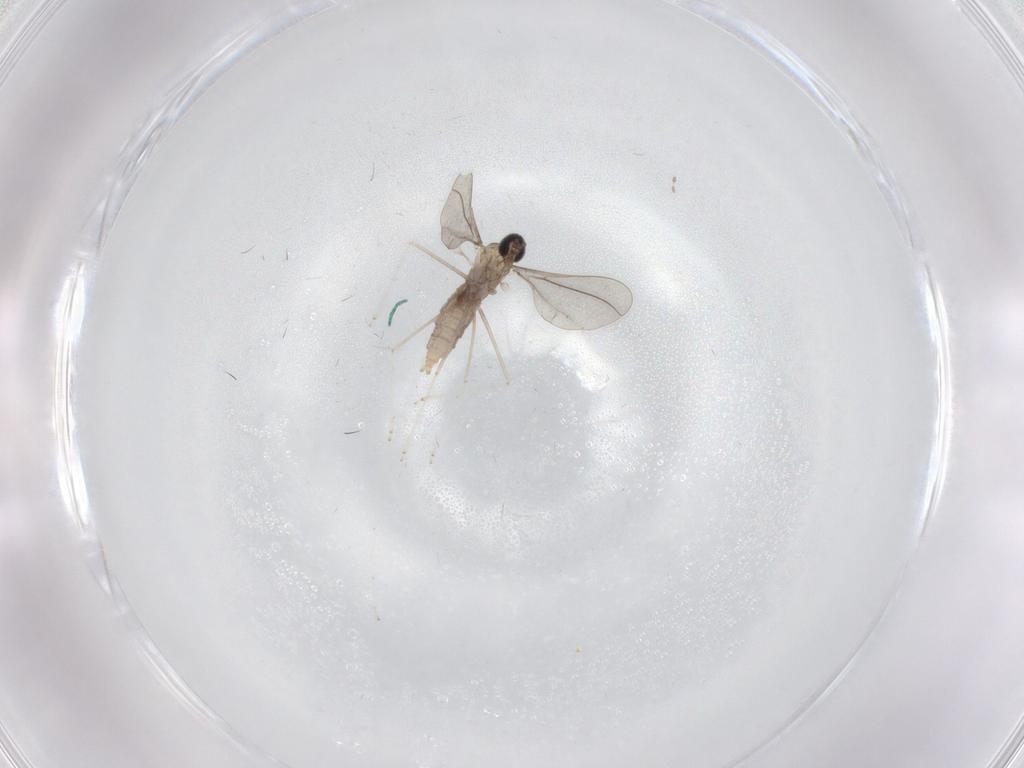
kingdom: Animalia
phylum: Arthropoda
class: Insecta
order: Diptera
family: Cecidomyiidae
